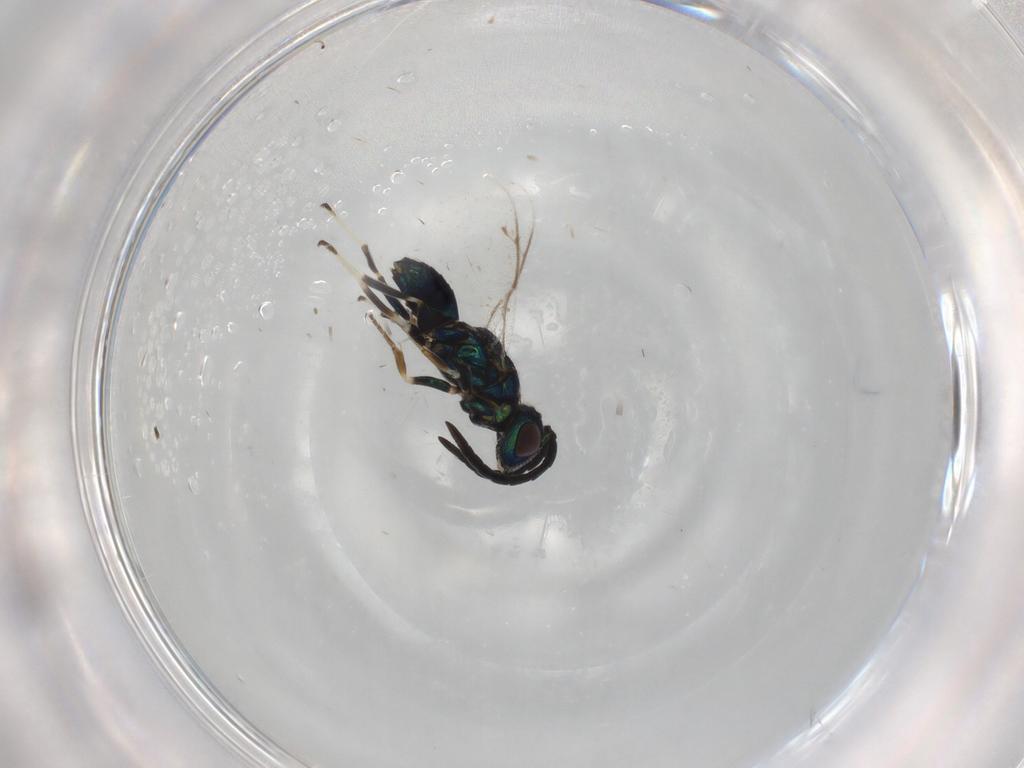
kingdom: Animalia
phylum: Arthropoda
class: Insecta
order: Hymenoptera
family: Eupelmidae
